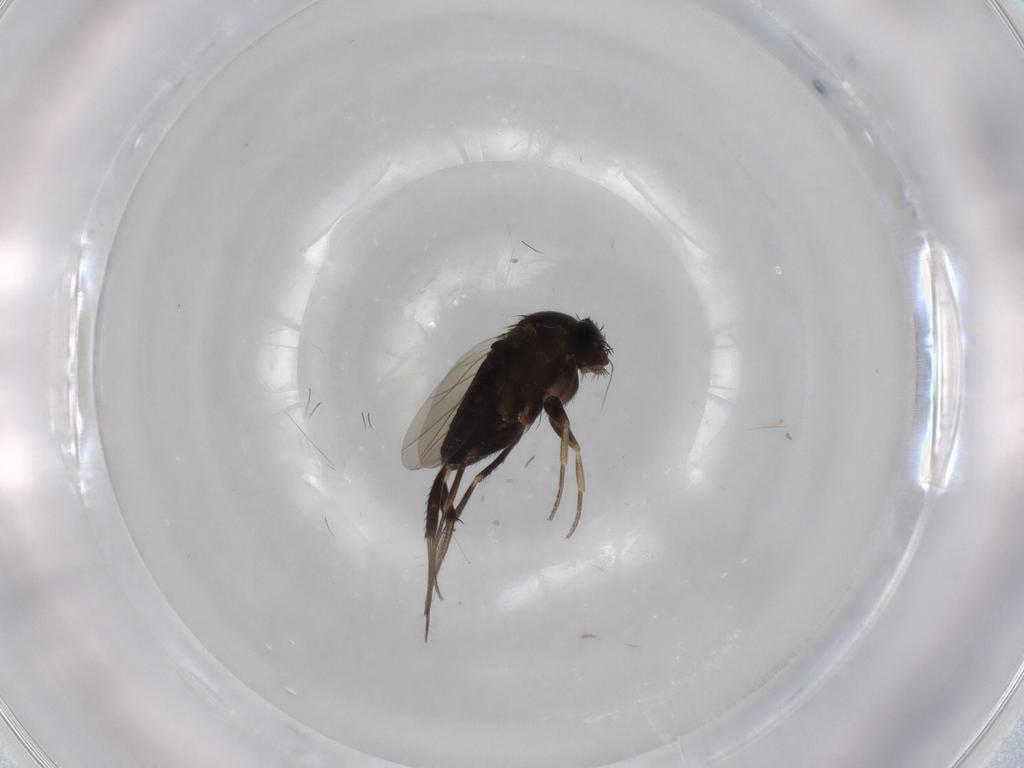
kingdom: Animalia
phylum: Arthropoda
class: Insecta
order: Diptera
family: Phoridae
